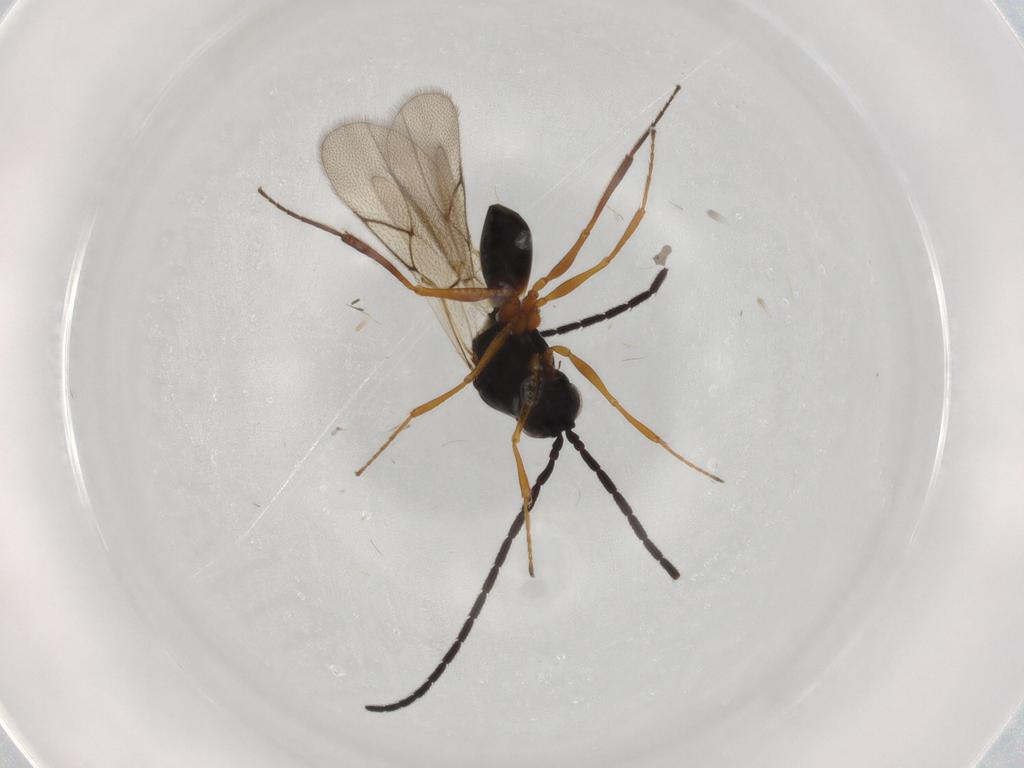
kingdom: Animalia
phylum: Arthropoda
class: Insecta
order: Hymenoptera
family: Figitidae
